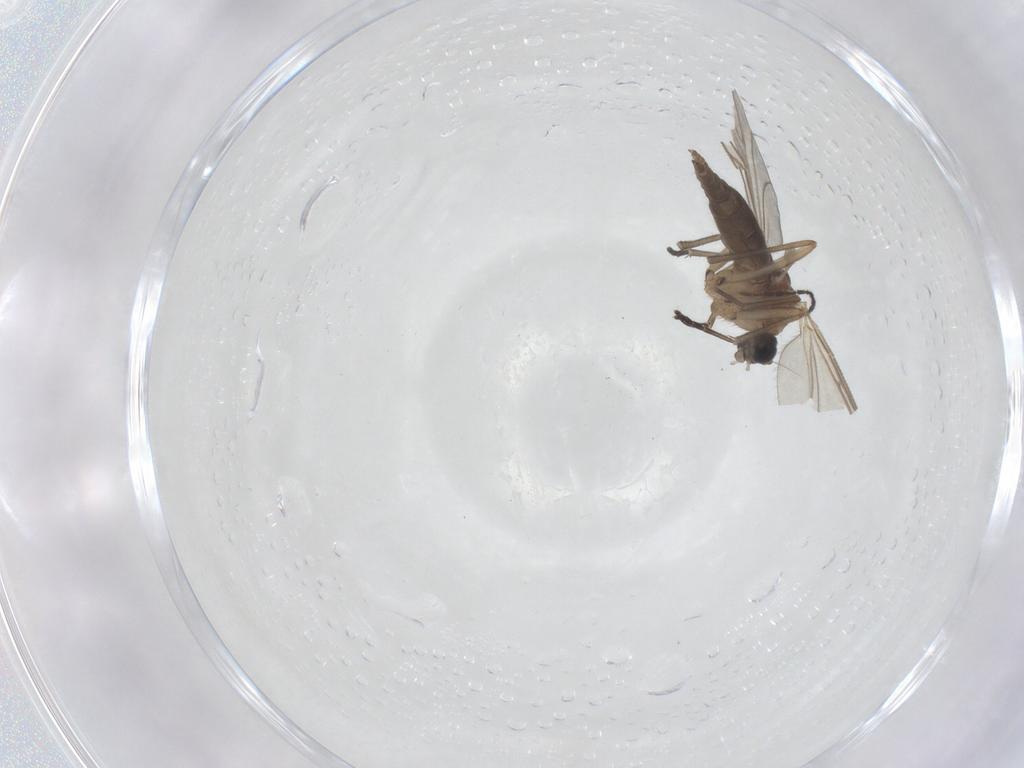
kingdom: Animalia
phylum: Arthropoda
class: Insecta
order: Diptera
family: Sciaridae
